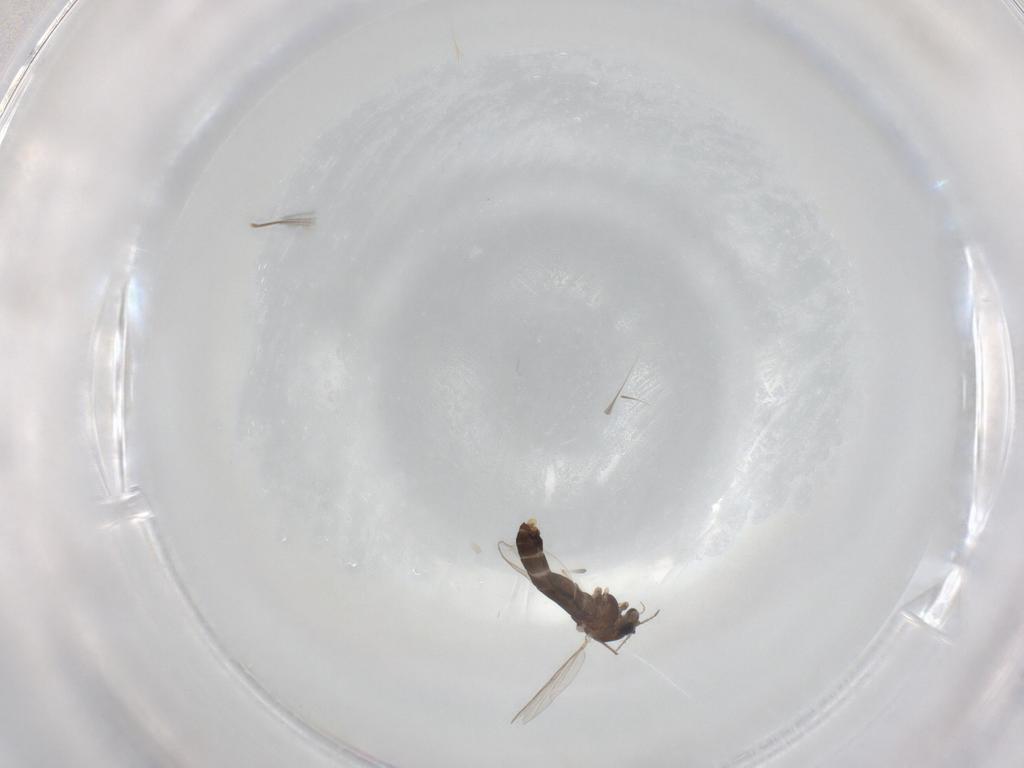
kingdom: Animalia
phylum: Arthropoda
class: Insecta
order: Diptera
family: Chironomidae
